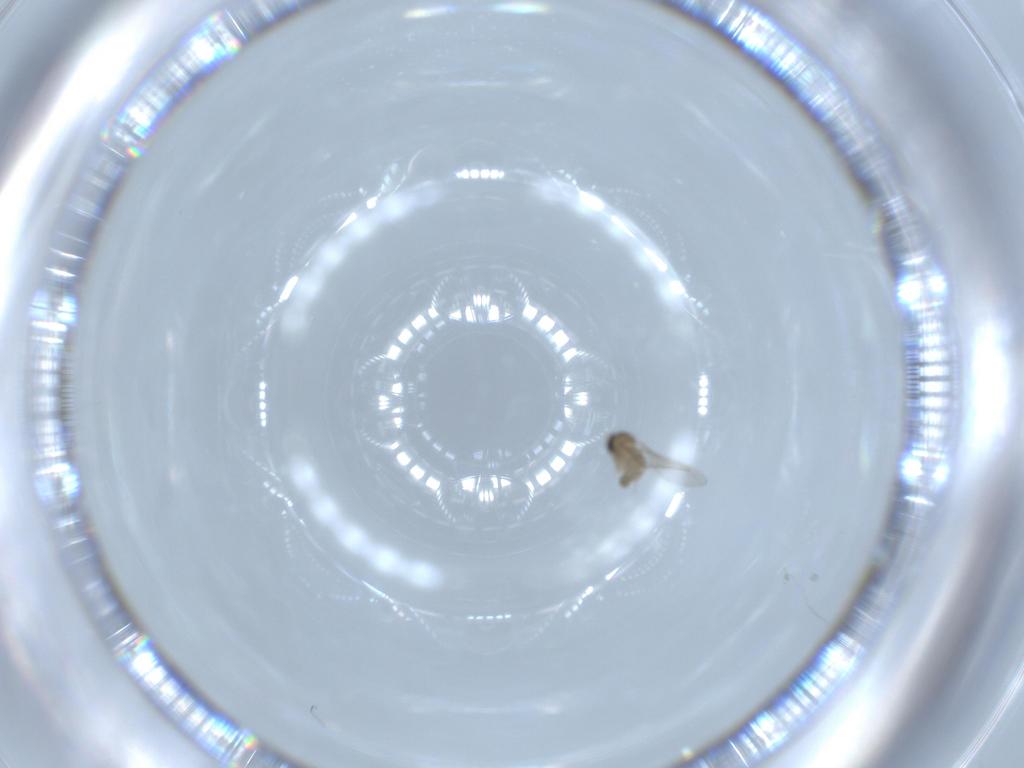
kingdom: Animalia
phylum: Arthropoda
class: Insecta
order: Diptera
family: Cecidomyiidae
